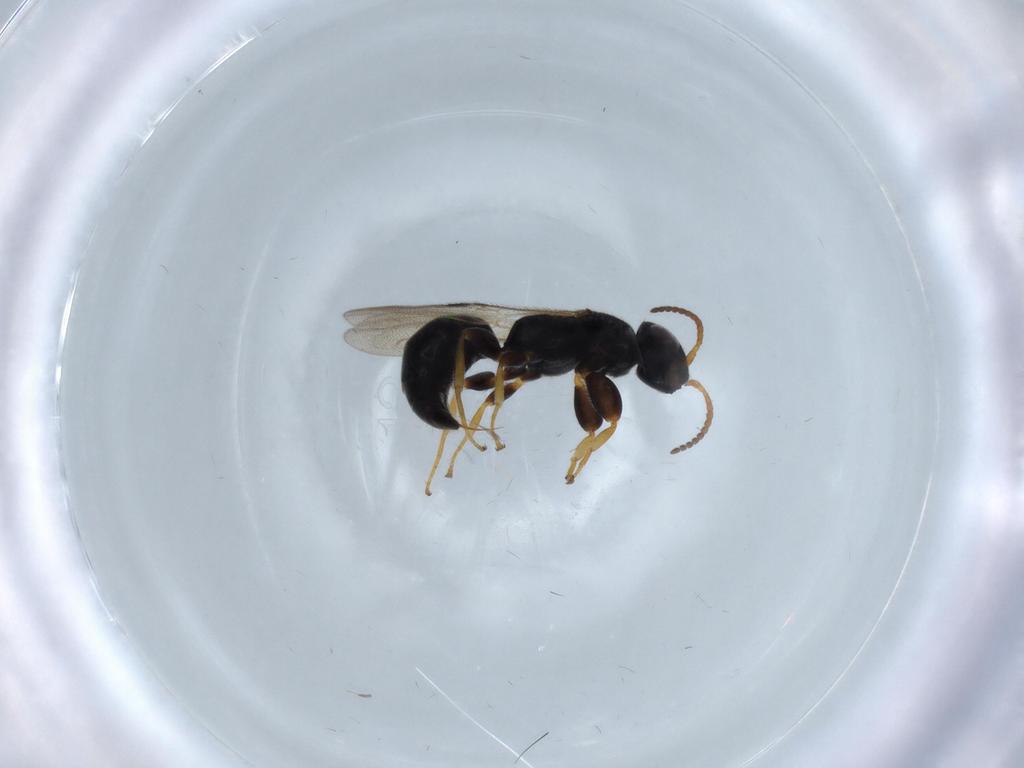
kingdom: Animalia
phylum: Arthropoda
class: Insecta
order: Hymenoptera
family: Bethylidae
